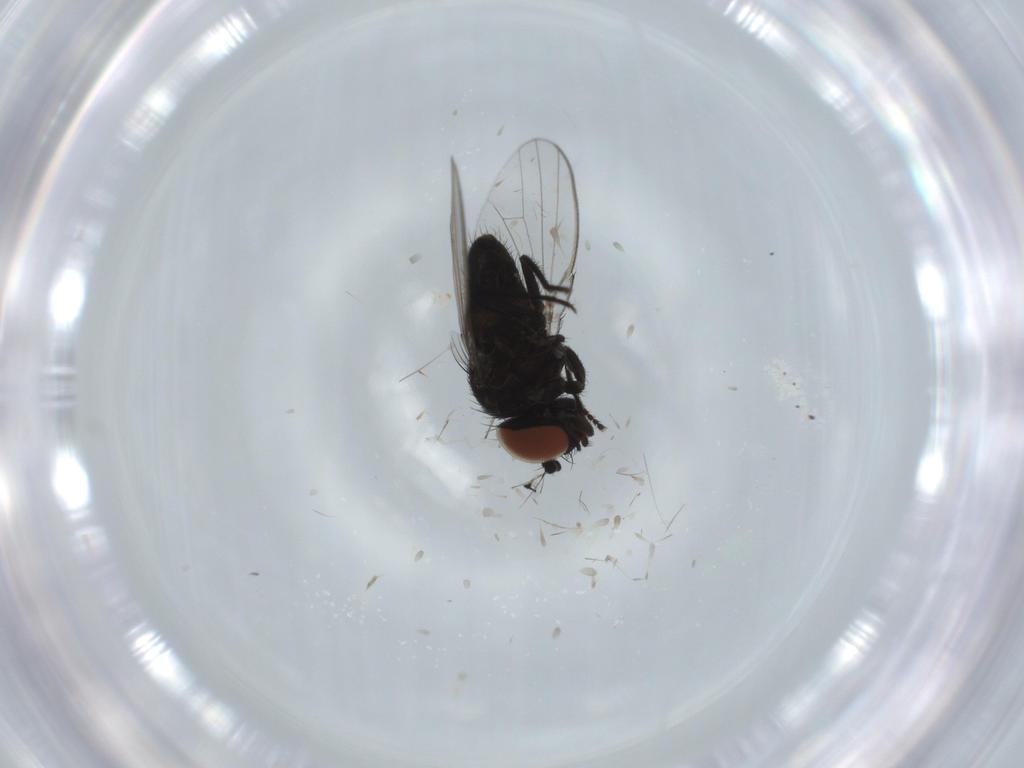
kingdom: Animalia
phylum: Arthropoda
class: Insecta
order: Diptera
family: Milichiidae
